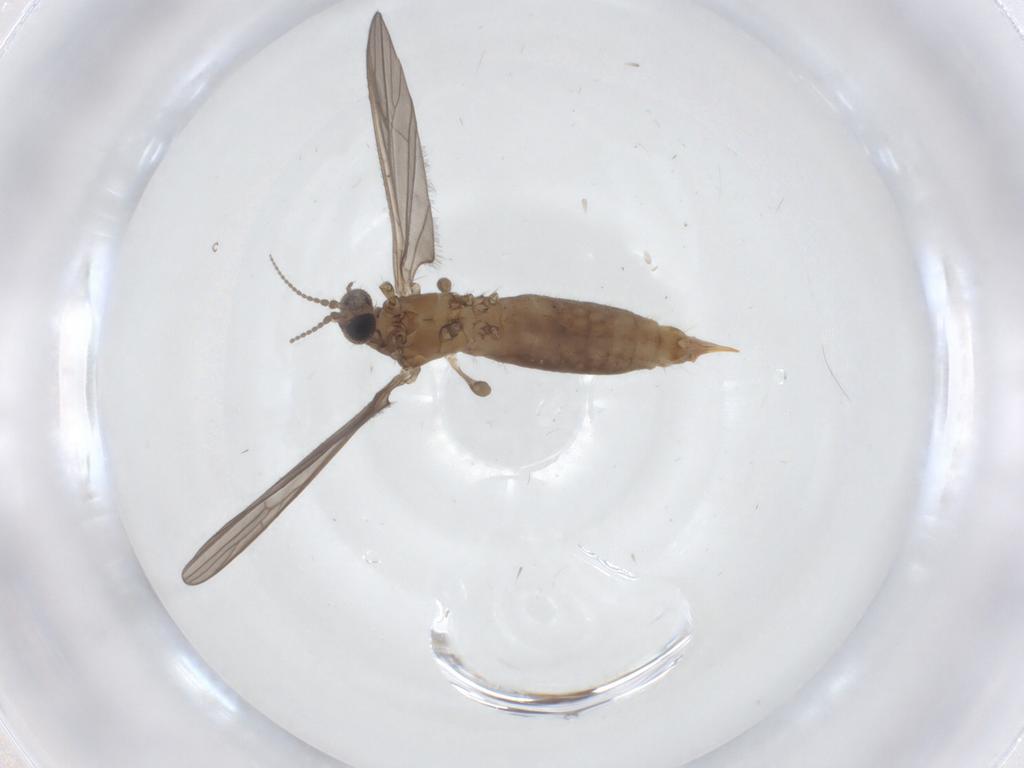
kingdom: Animalia
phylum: Arthropoda
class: Insecta
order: Diptera
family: Limoniidae
